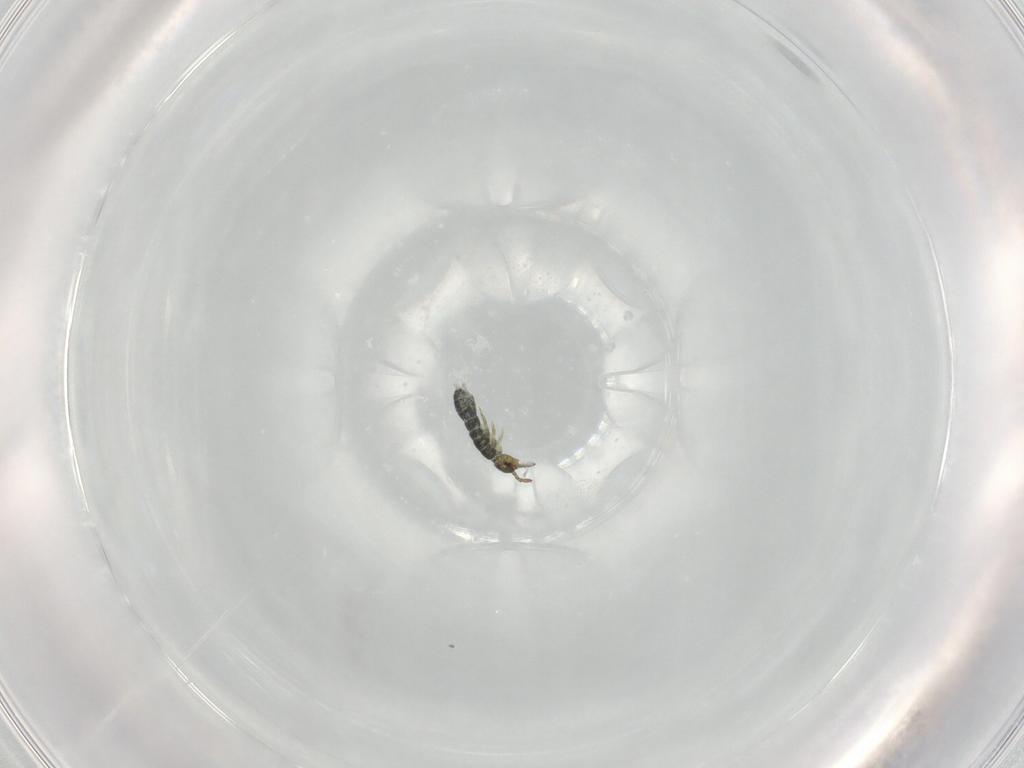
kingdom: Animalia
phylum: Arthropoda
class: Collembola
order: Entomobryomorpha
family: Isotomidae
